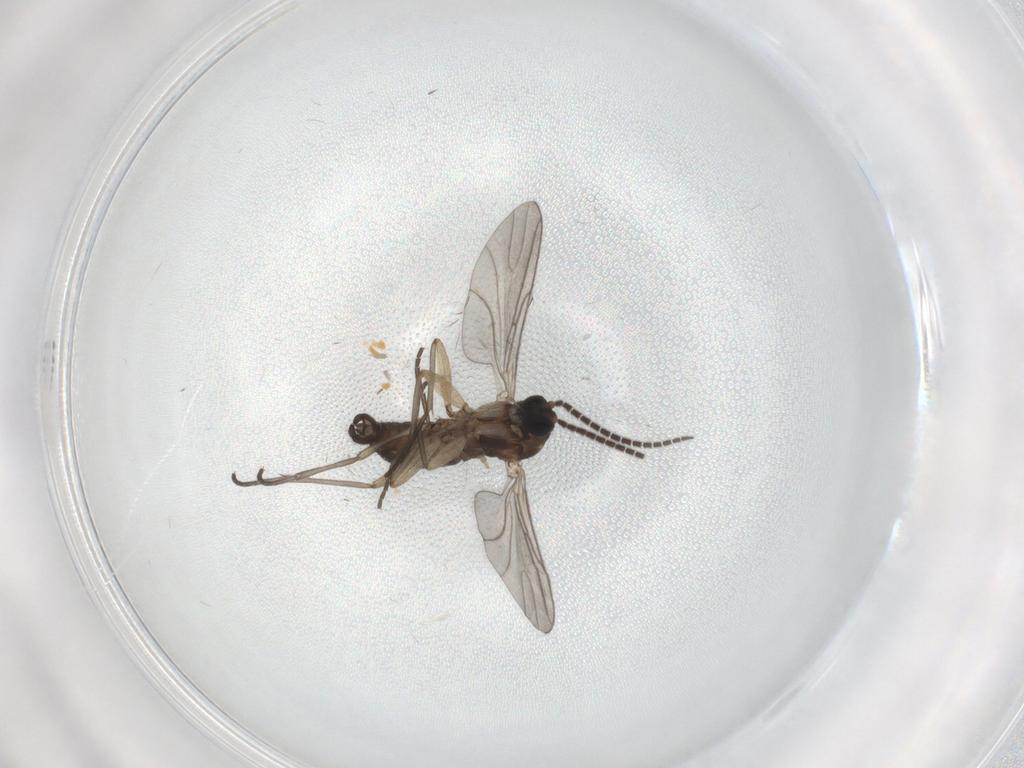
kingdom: Animalia
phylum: Arthropoda
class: Insecta
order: Diptera
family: Sciaridae
